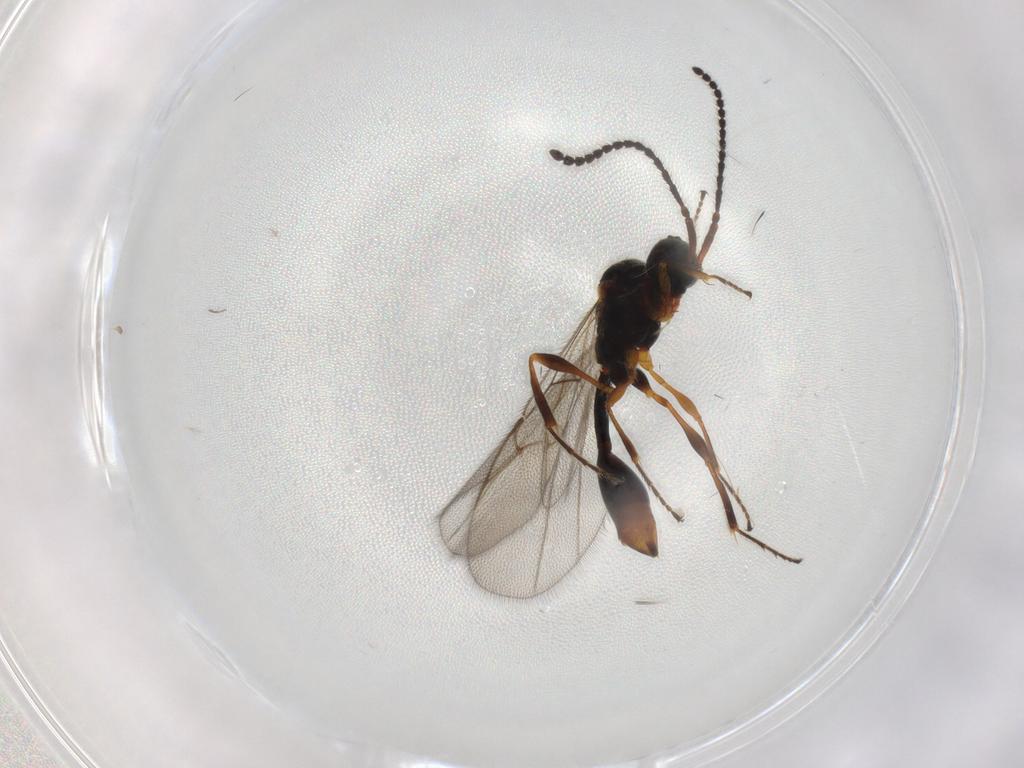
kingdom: Animalia
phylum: Arthropoda
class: Insecta
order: Hymenoptera
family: Diapriidae
